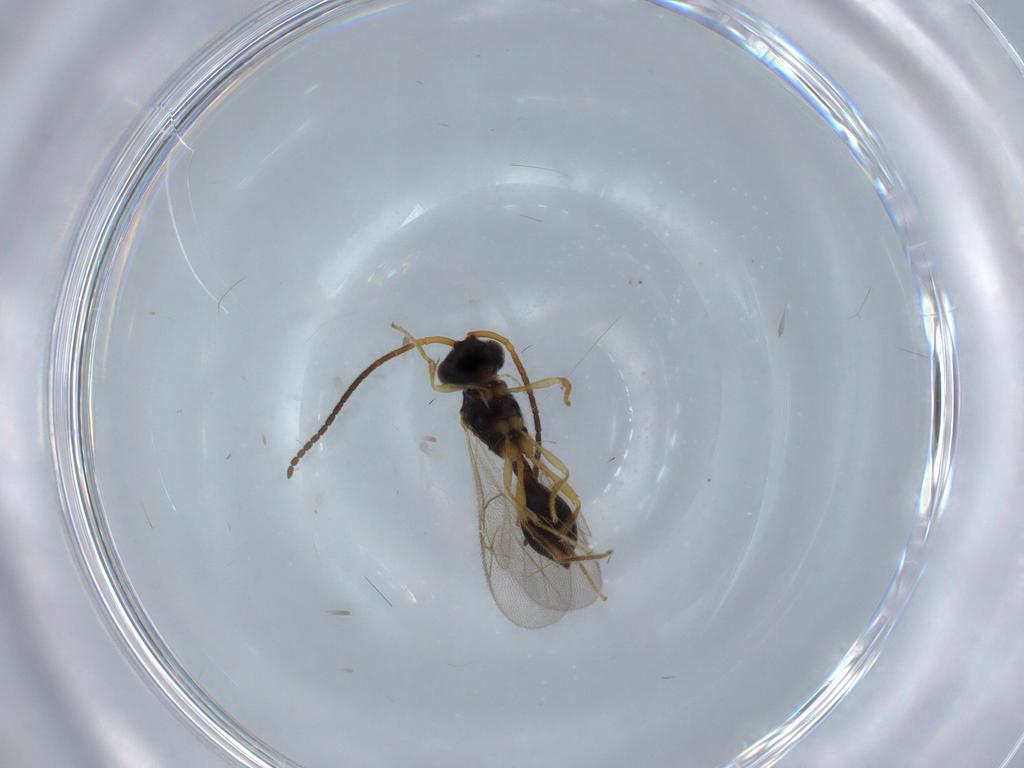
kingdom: Animalia
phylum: Arthropoda
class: Insecta
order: Hymenoptera
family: Diapriidae
